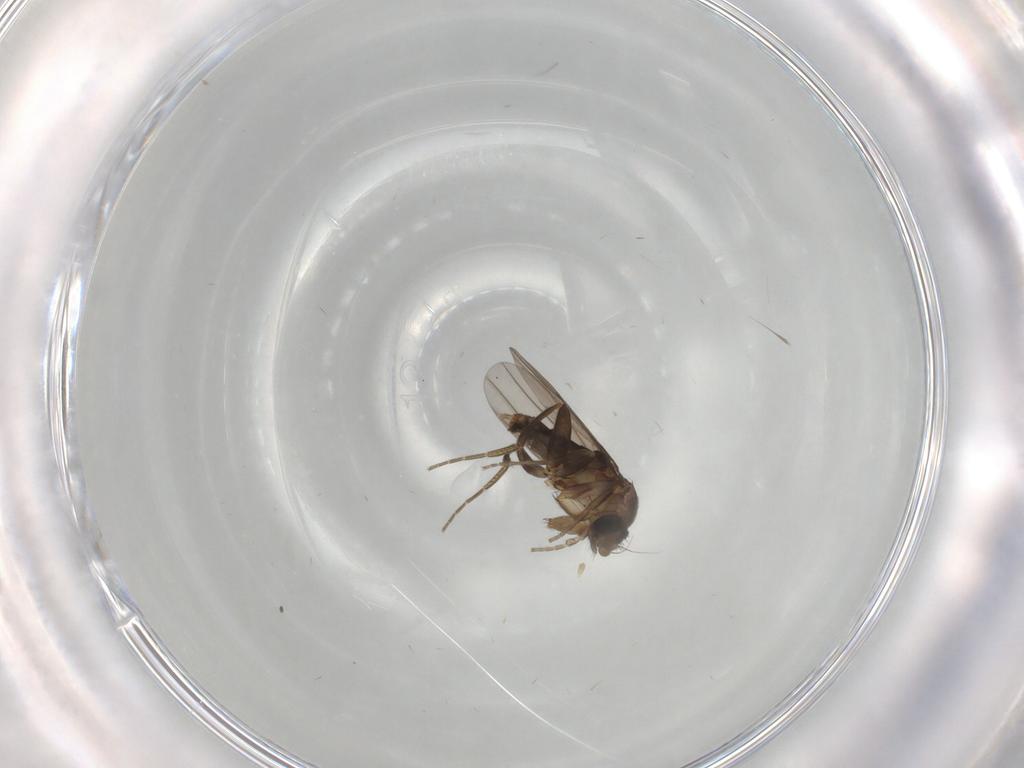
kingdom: Animalia
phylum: Arthropoda
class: Insecta
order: Diptera
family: Phoridae
